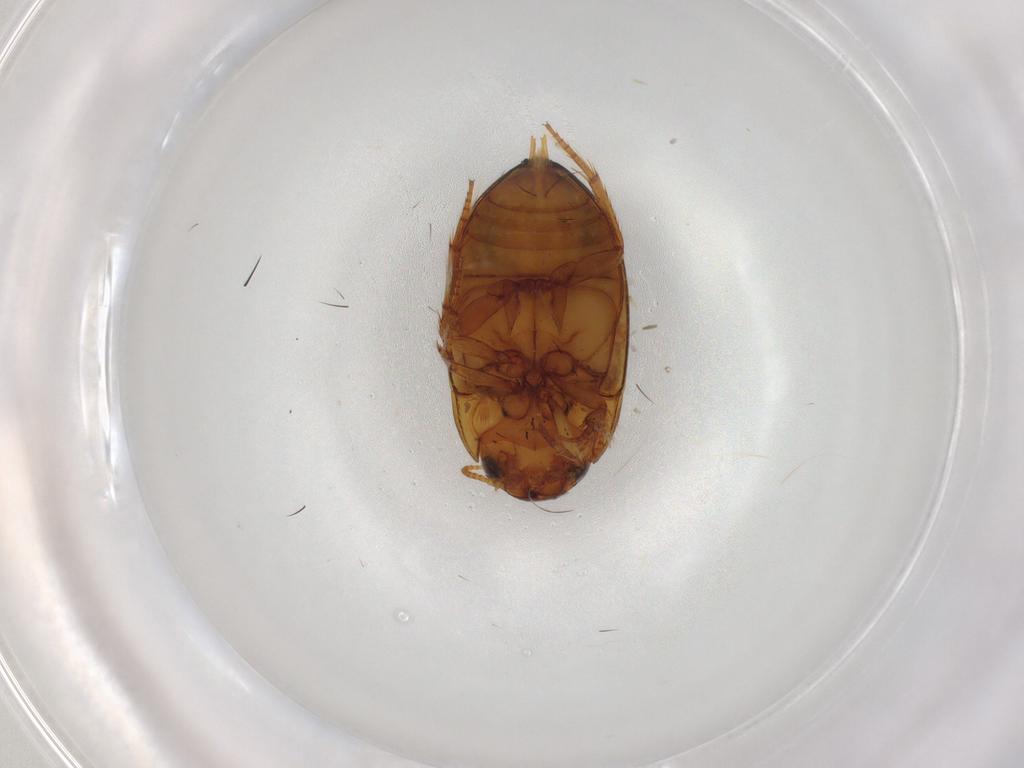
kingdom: Animalia
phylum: Arthropoda
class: Insecta
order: Coleoptera
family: Noteridae
